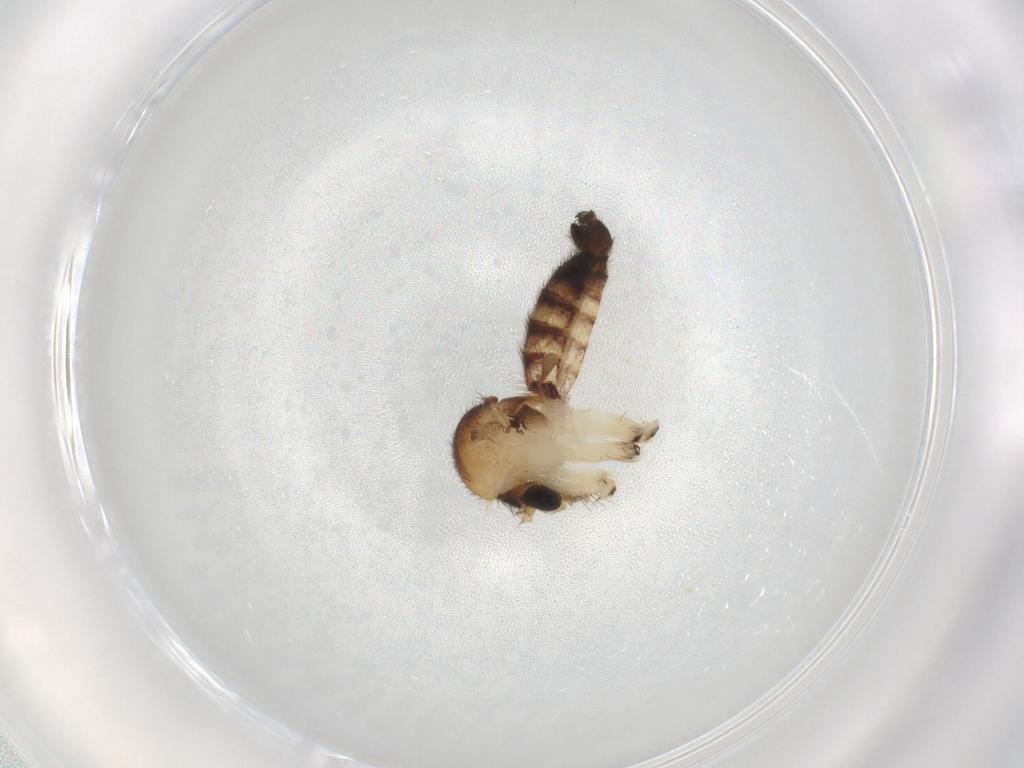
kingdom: Animalia
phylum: Arthropoda
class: Insecta
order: Diptera
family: Mycetophilidae
